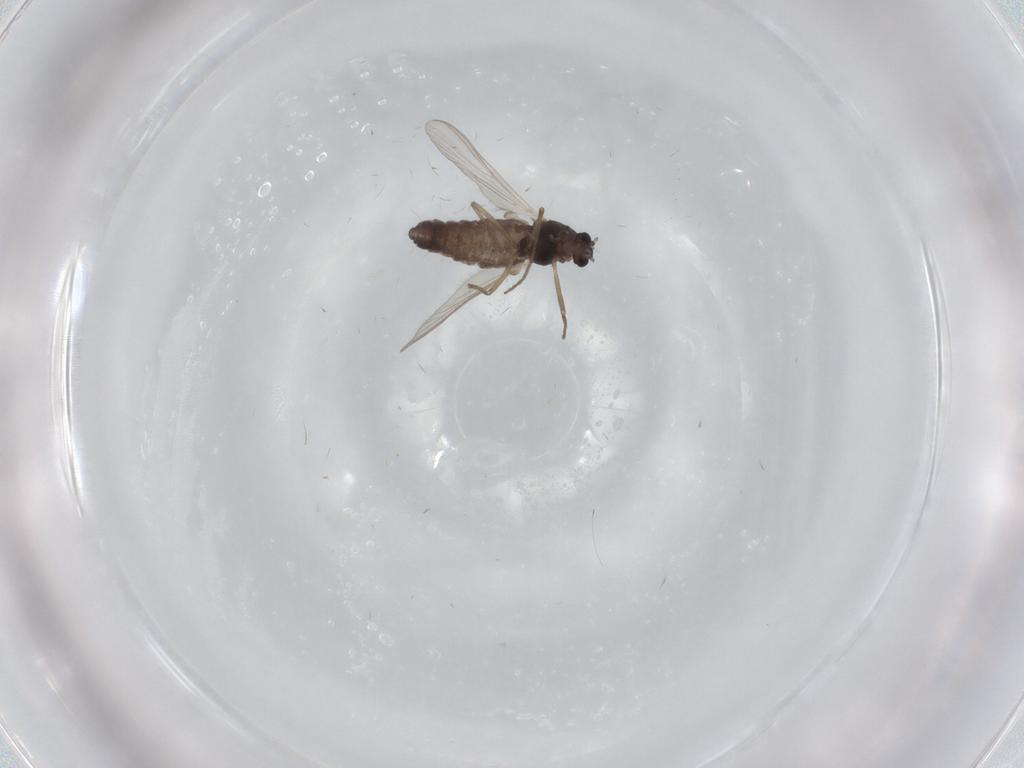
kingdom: Animalia
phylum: Arthropoda
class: Insecta
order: Diptera
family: Chironomidae
